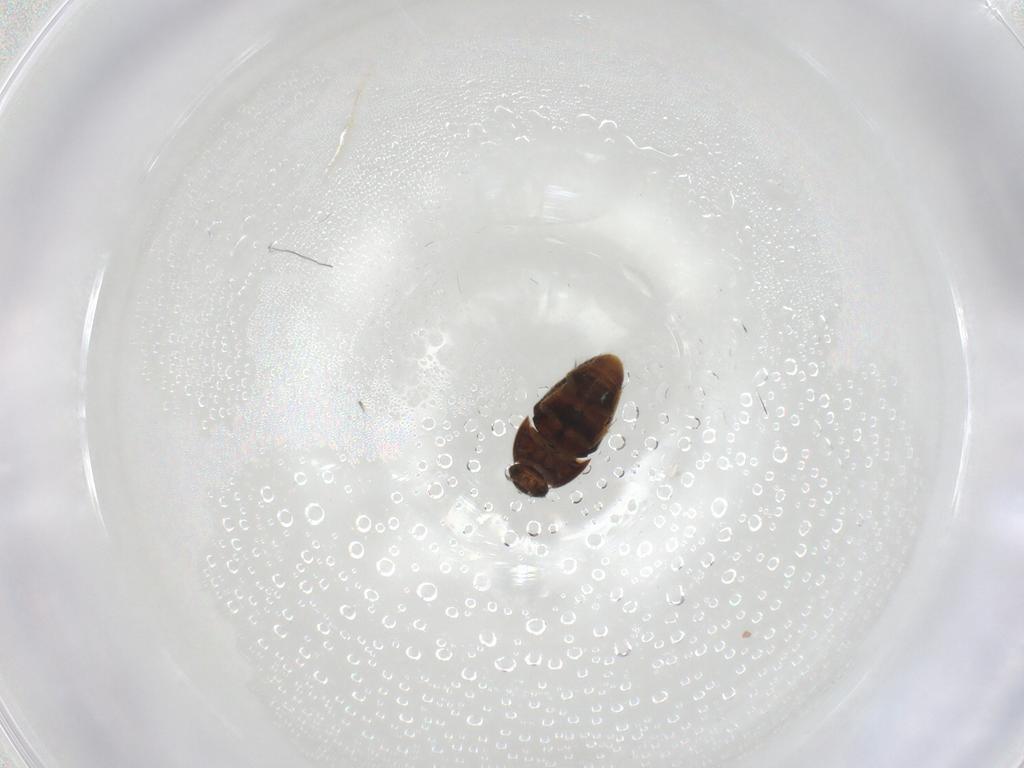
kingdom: Animalia
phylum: Arthropoda
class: Insecta
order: Coleoptera
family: Ptiliidae
